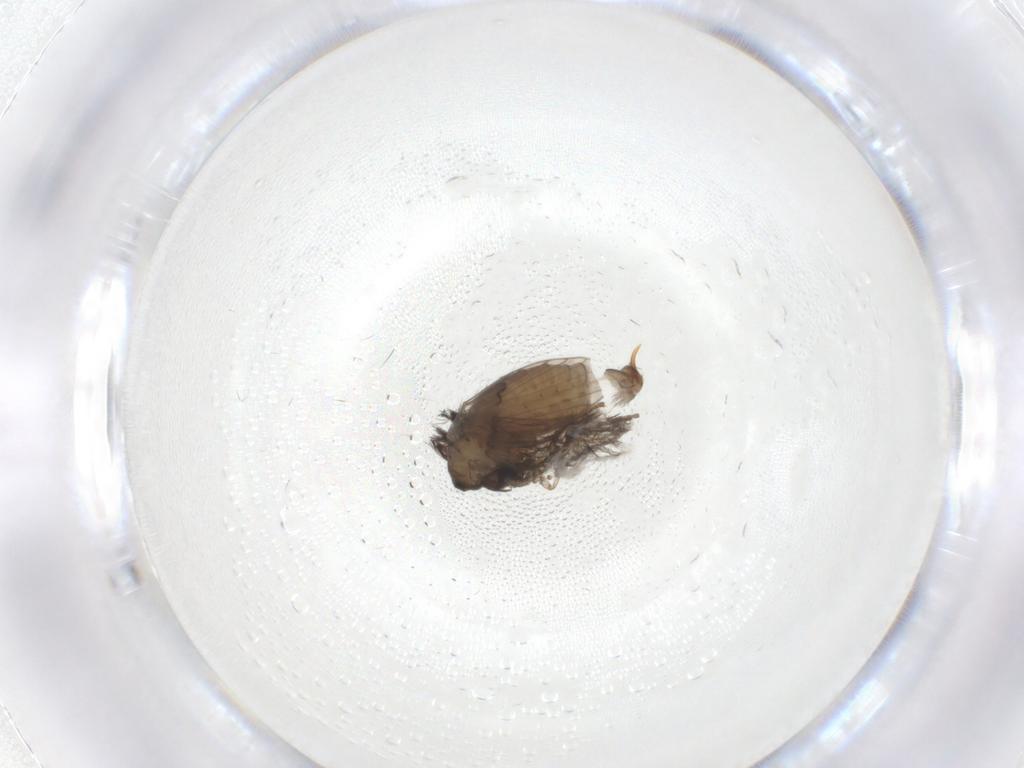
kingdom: Animalia
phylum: Arthropoda
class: Insecta
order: Diptera
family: Psychodidae
